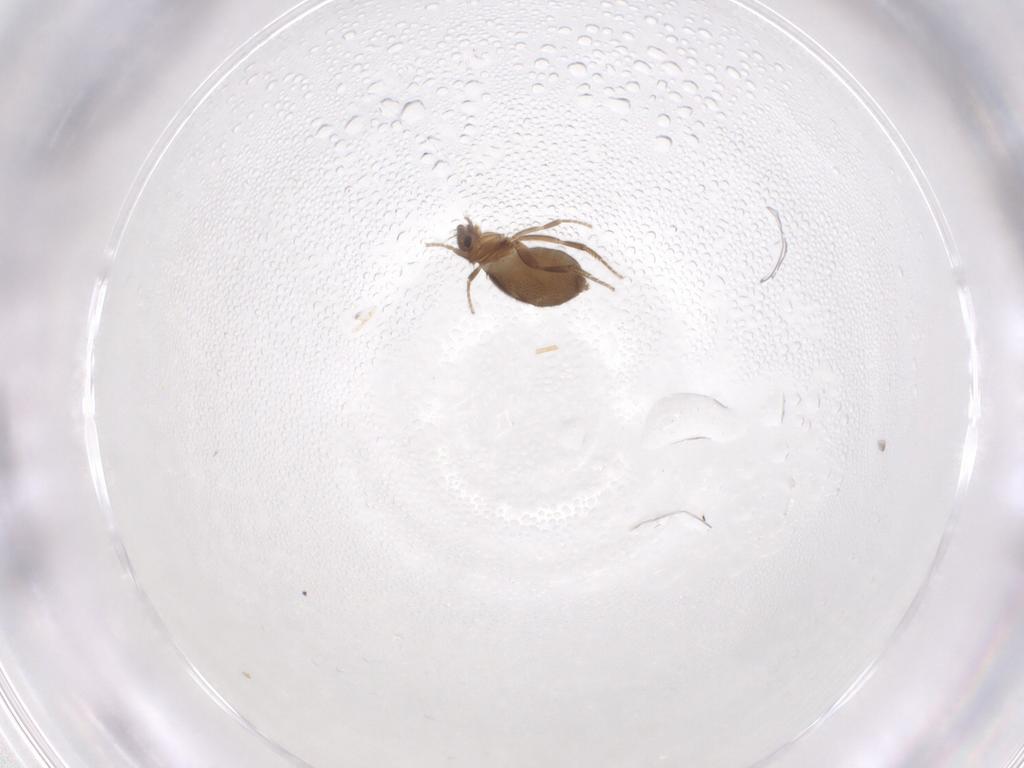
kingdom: Animalia
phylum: Arthropoda
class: Insecta
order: Diptera
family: Phoridae
